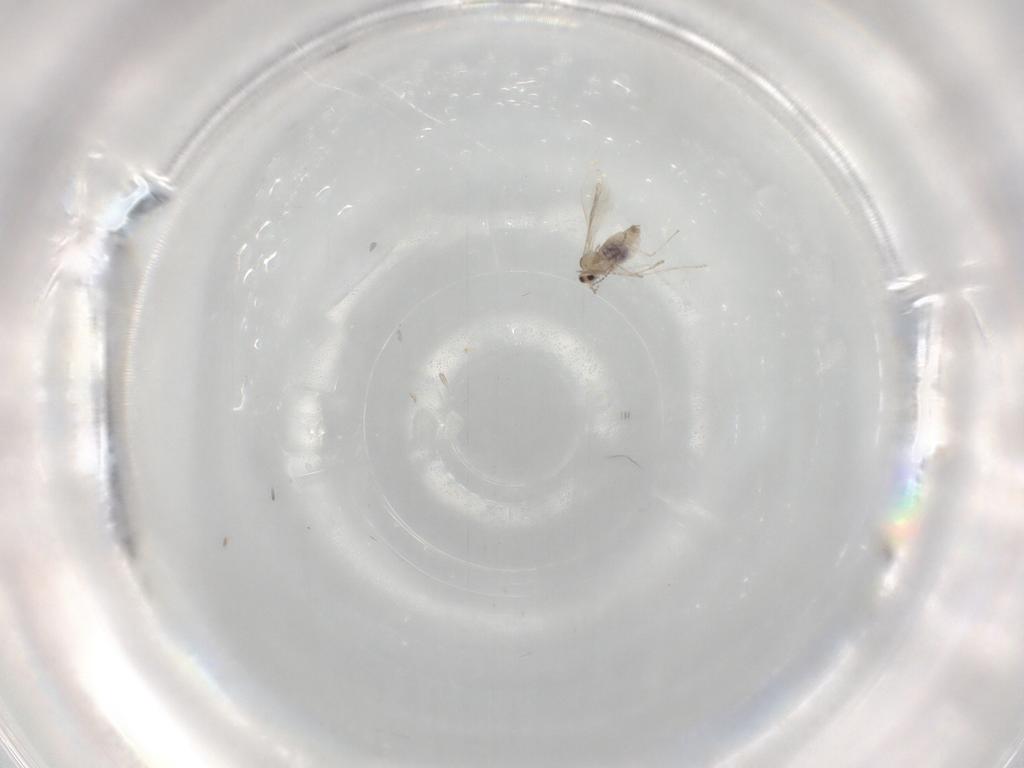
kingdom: Animalia
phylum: Arthropoda
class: Insecta
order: Diptera
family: Cecidomyiidae
